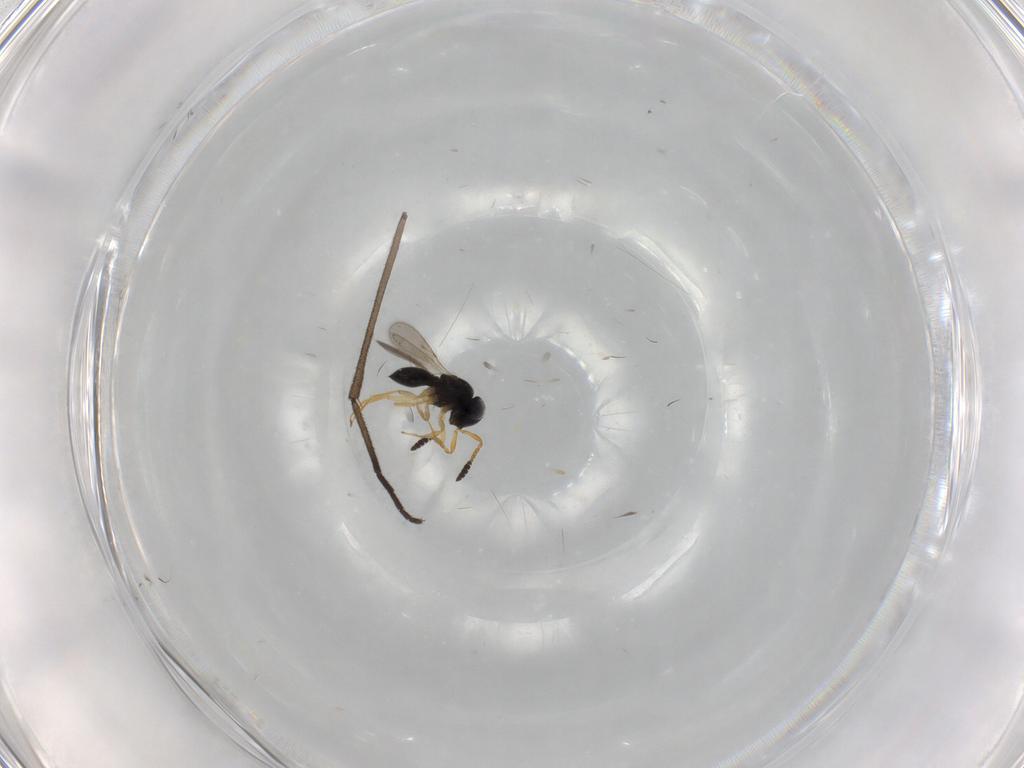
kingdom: Animalia
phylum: Arthropoda
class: Insecta
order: Hymenoptera
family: Scelionidae
